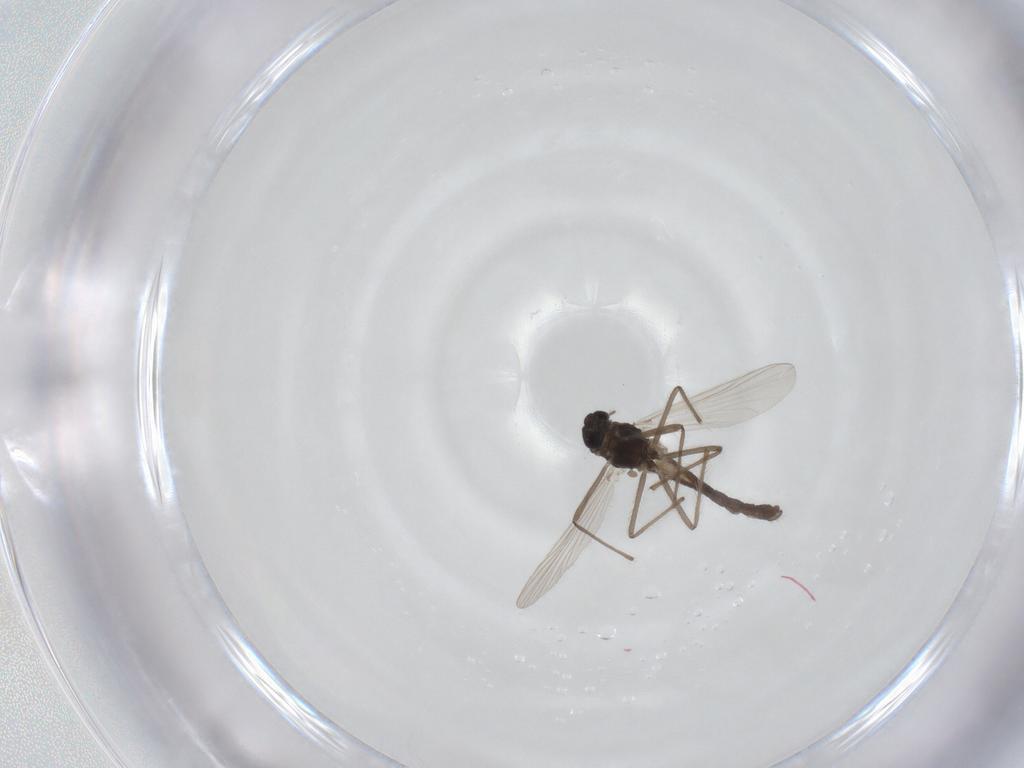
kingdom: Animalia
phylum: Arthropoda
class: Insecta
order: Diptera
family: Chironomidae
